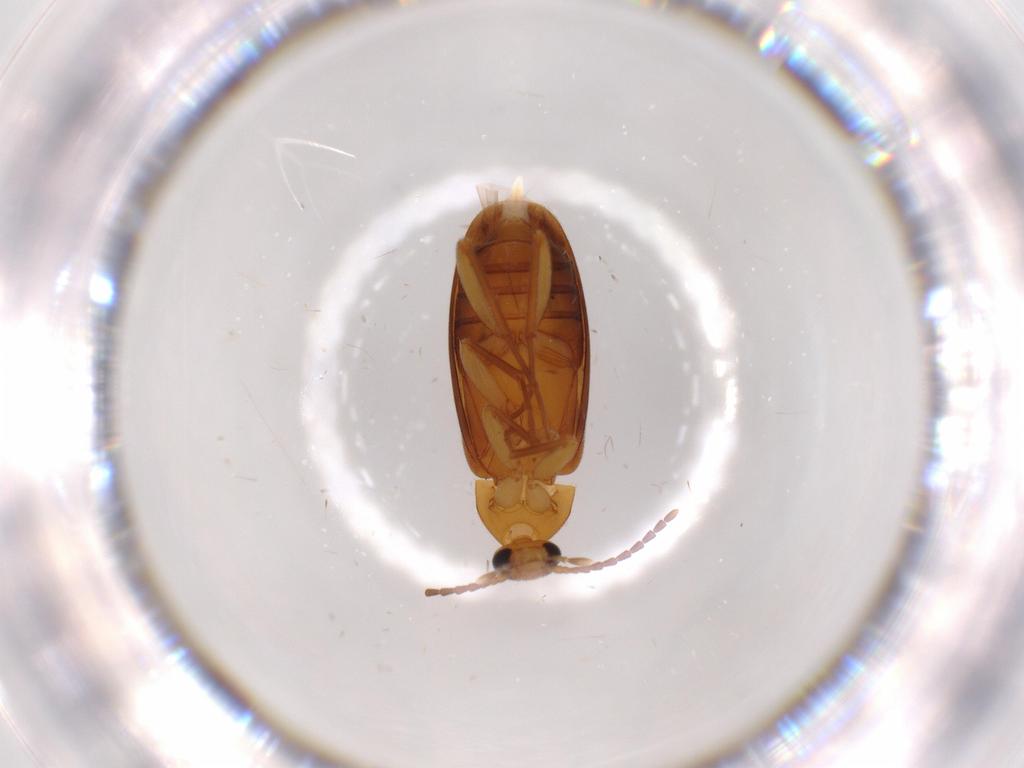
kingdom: Animalia
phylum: Arthropoda
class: Insecta
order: Coleoptera
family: Scraptiidae
